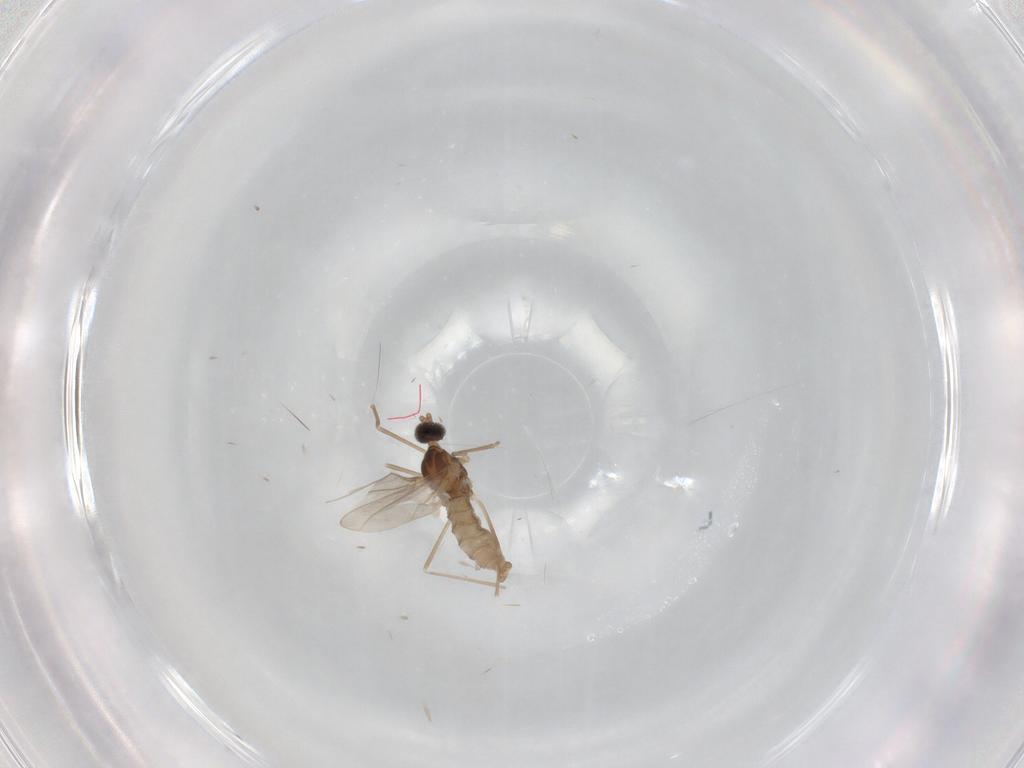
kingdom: Animalia
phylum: Arthropoda
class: Insecta
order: Diptera
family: Cecidomyiidae
